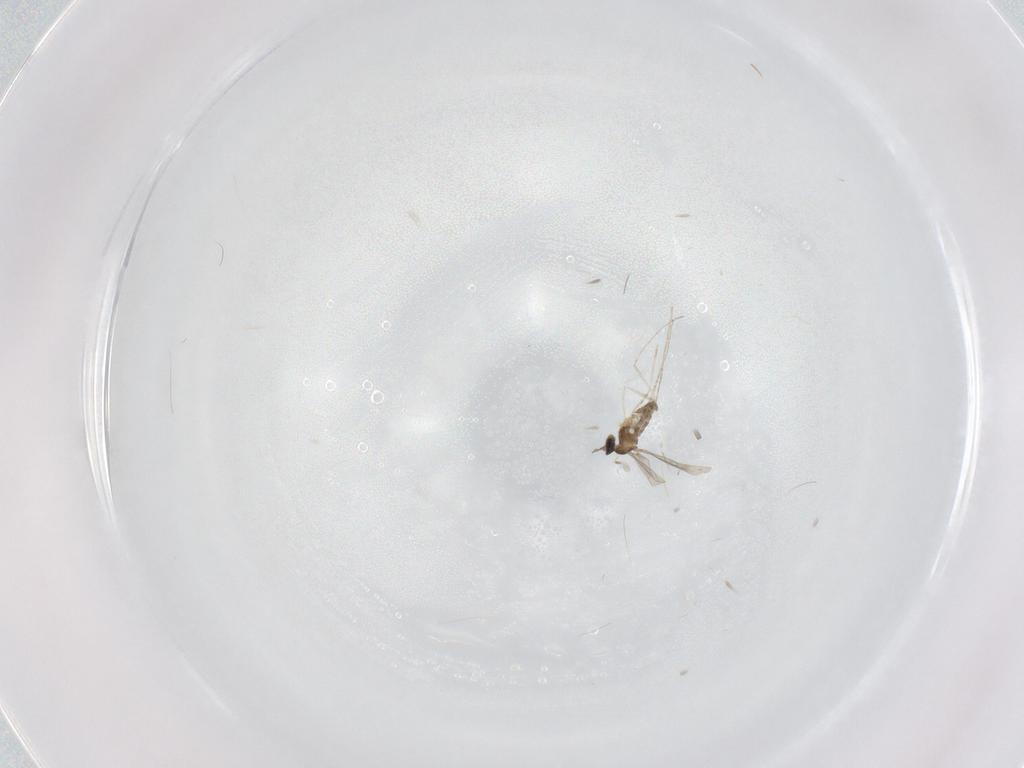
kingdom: Animalia
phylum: Arthropoda
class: Insecta
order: Diptera
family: Cecidomyiidae
